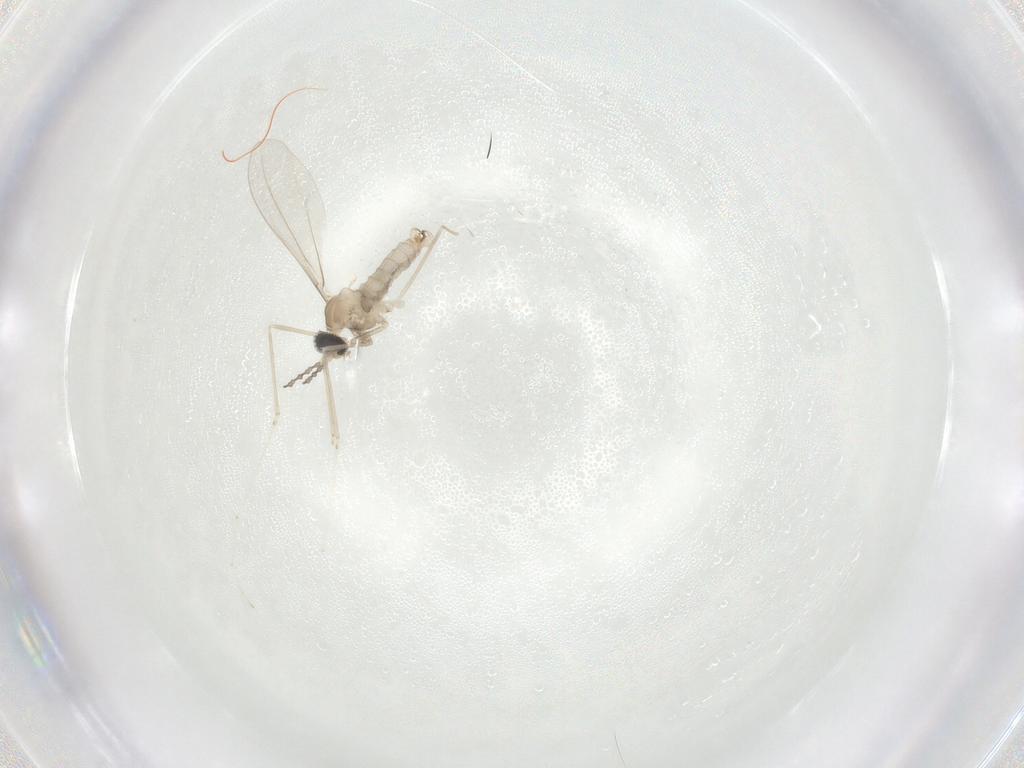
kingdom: Animalia
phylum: Arthropoda
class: Insecta
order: Diptera
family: Cecidomyiidae
